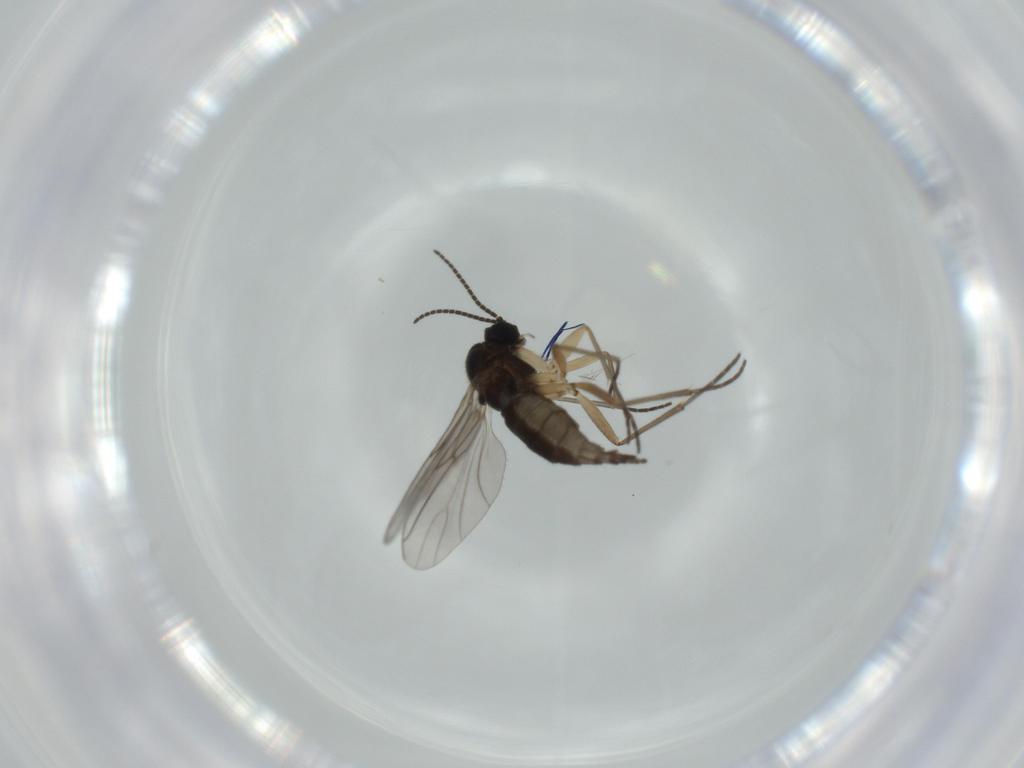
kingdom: Animalia
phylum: Arthropoda
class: Insecta
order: Diptera
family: Sciaridae
